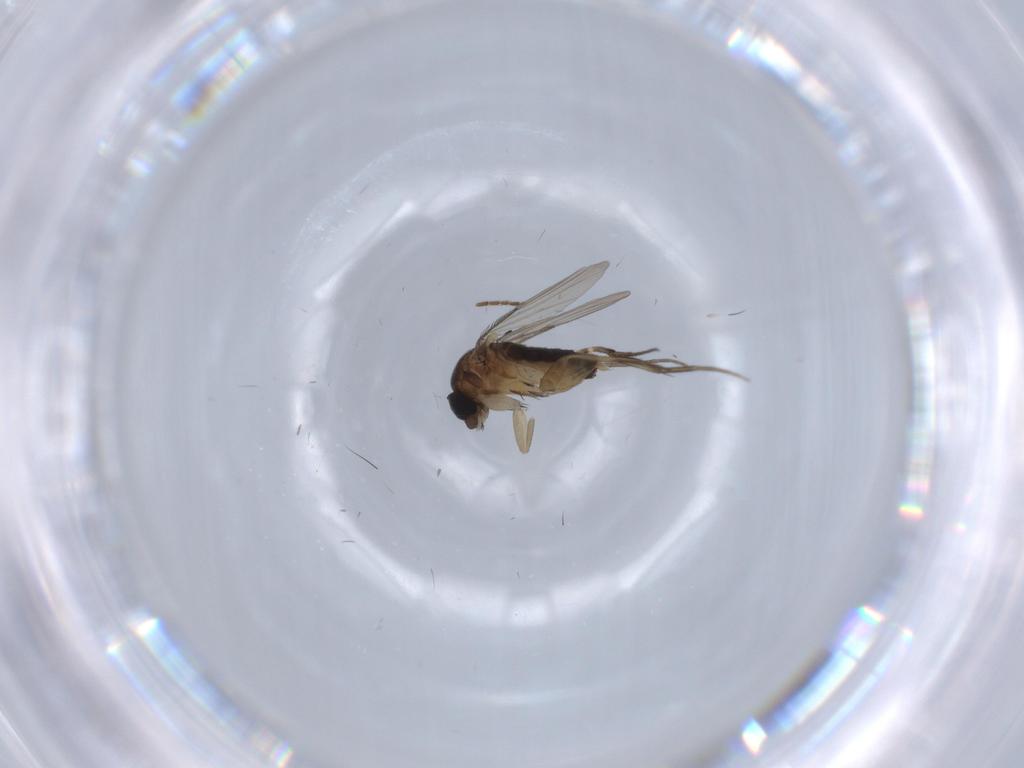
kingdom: Animalia
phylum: Arthropoda
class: Insecta
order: Diptera
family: Phoridae
